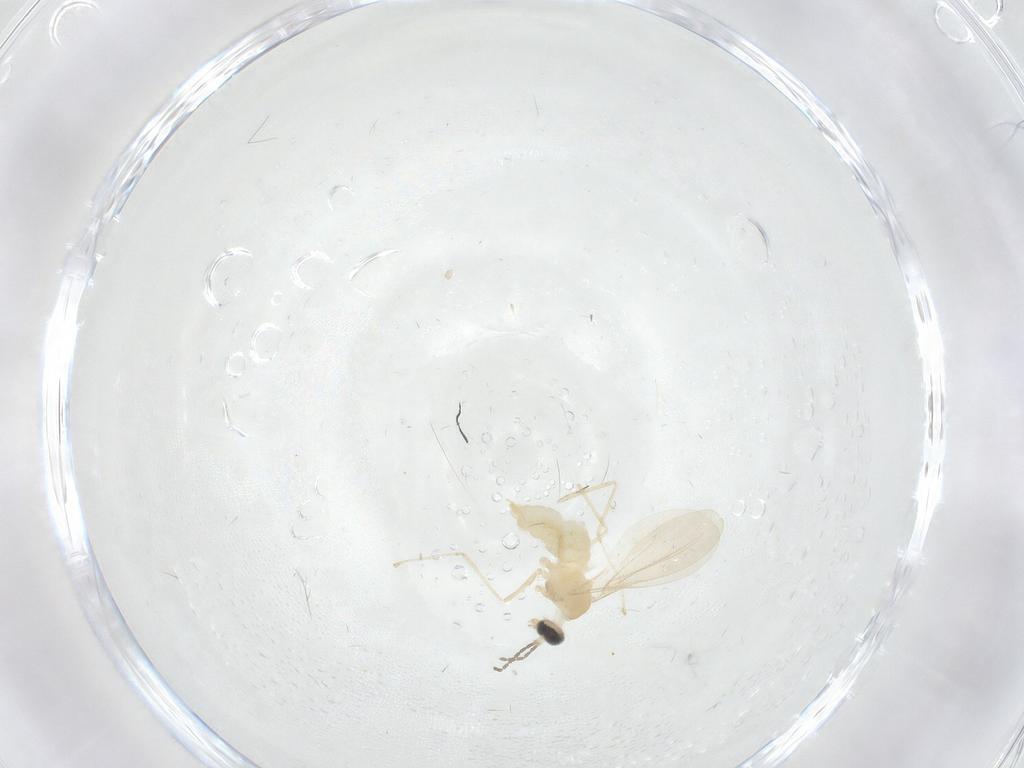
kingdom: Animalia
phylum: Arthropoda
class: Insecta
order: Diptera
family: Cecidomyiidae
